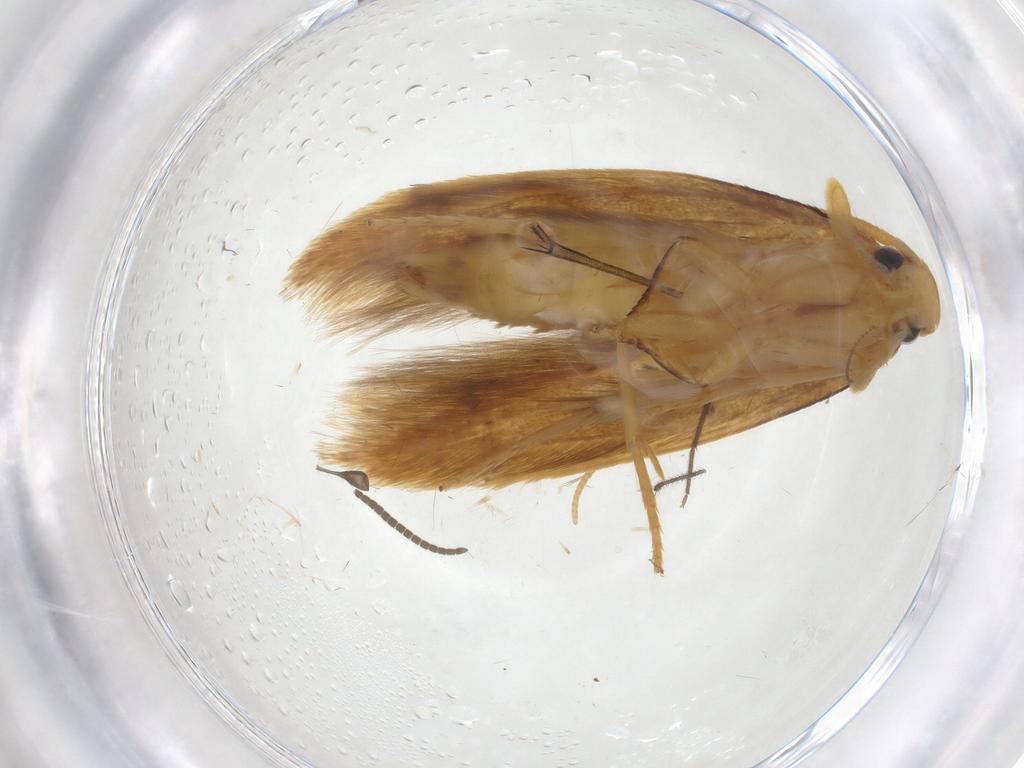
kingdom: Animalia
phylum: Arthropoda
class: Insecta
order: Lepidoptera
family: Tineidae
